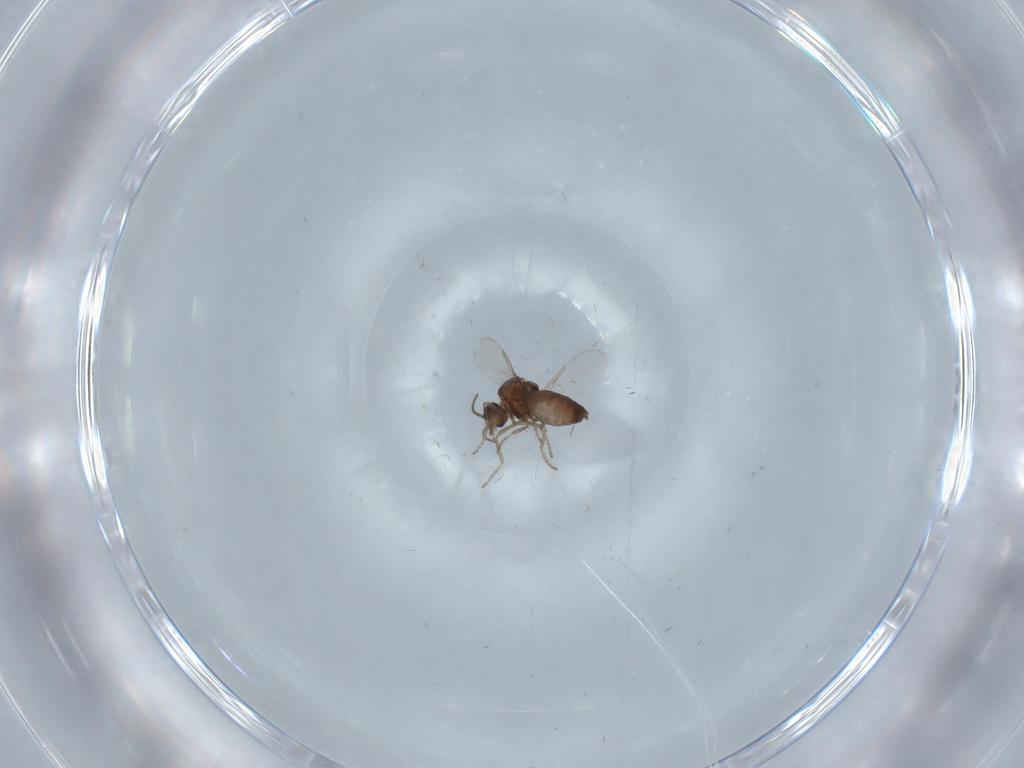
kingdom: Animalia
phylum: Arthropoda
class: Insecta
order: Diptera
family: Ceratopogonidae
